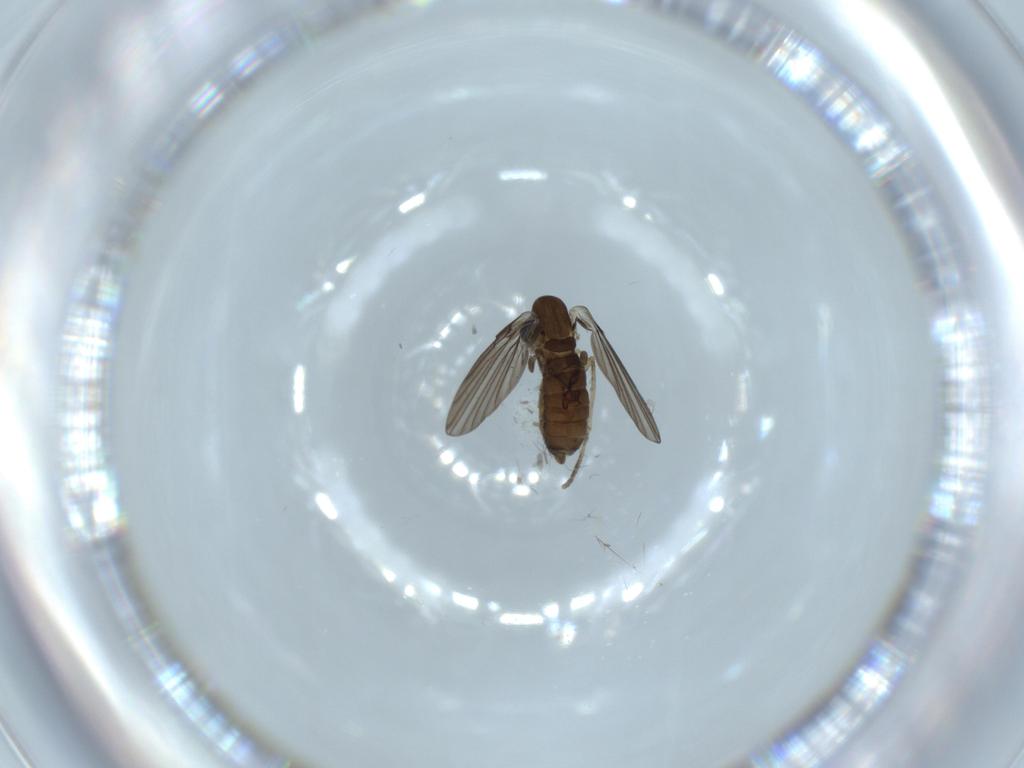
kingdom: Animalia
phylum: Arthropoda
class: Insecta
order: Diptera
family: Psychodidae
